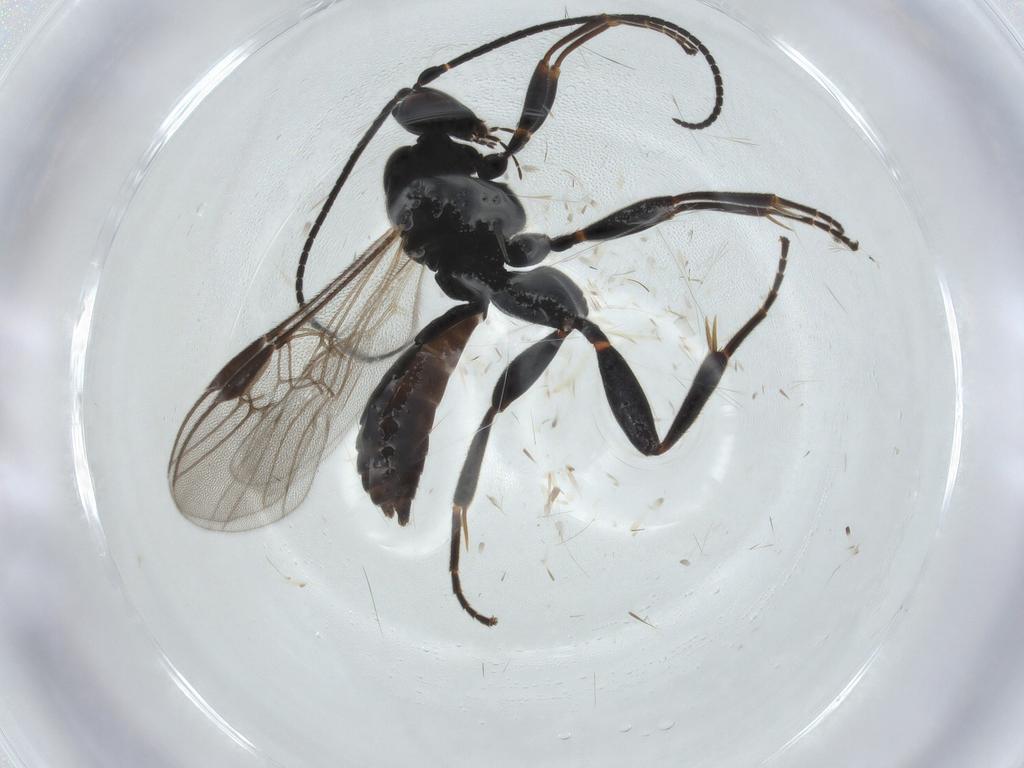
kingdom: Animalia
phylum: Arthropoda
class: Insecta
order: Hymenoptera
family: Braconidae
